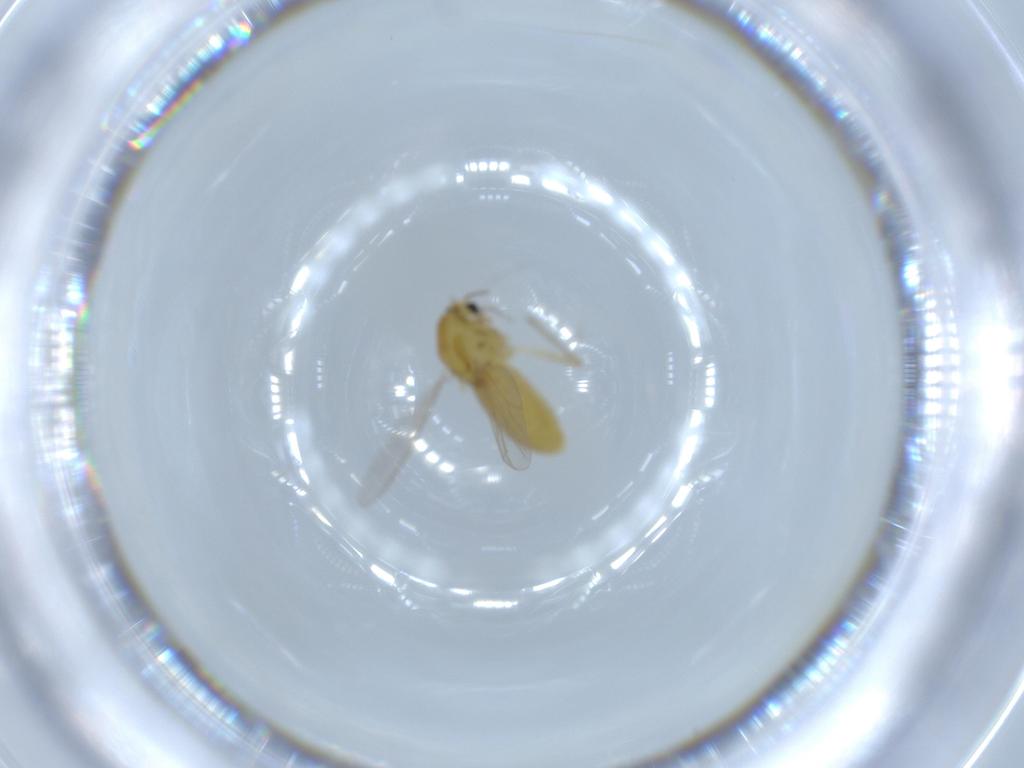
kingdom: Animalia
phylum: Arthropoda
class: Insecta
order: Diptera
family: Chironomidae
